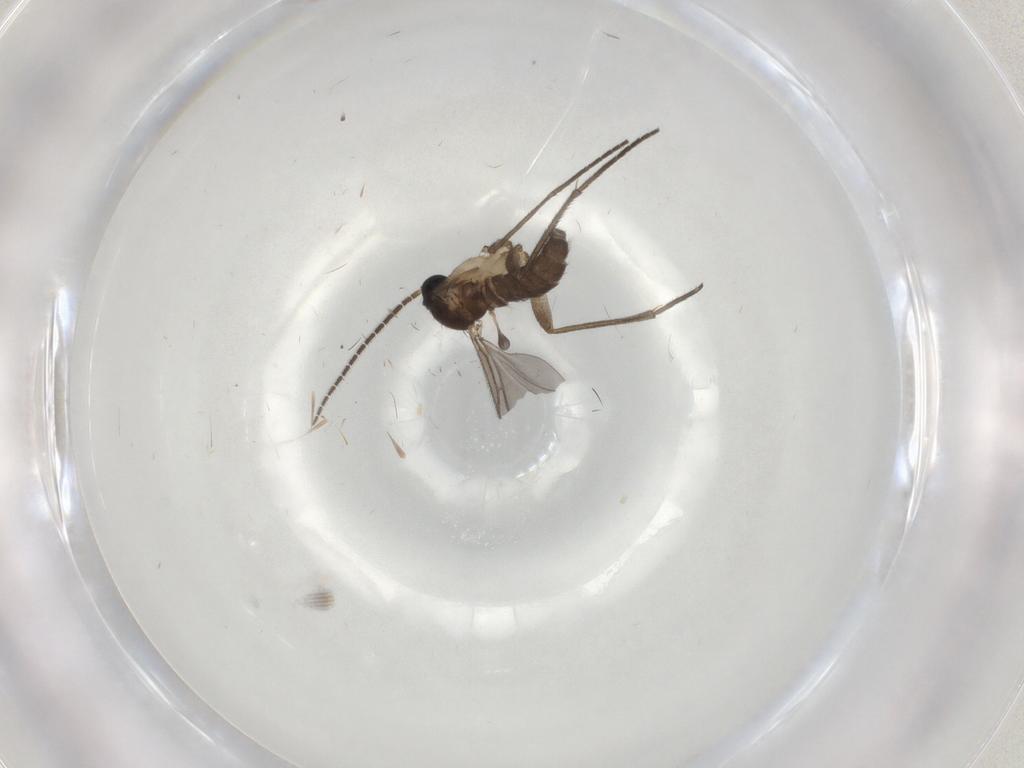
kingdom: Animalia
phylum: Arthropoda
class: Insecta
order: Diptera
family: Sciaridae
